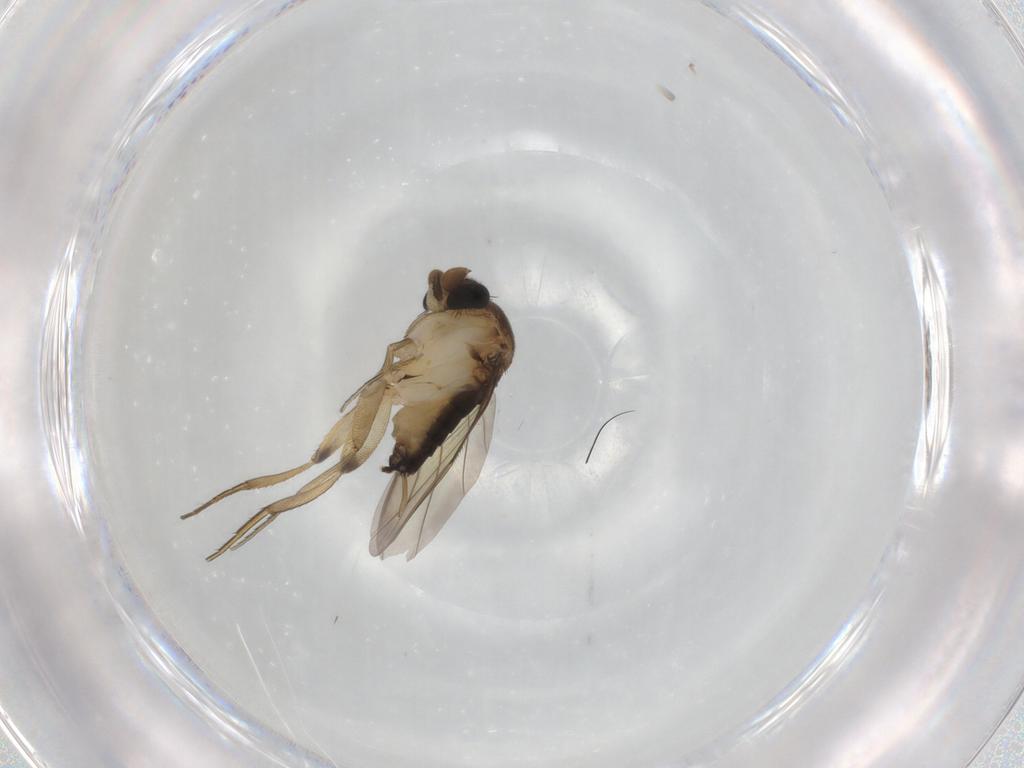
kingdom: Animalia
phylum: Arthropoda
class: Insecta
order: Diptera
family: Phoridae
